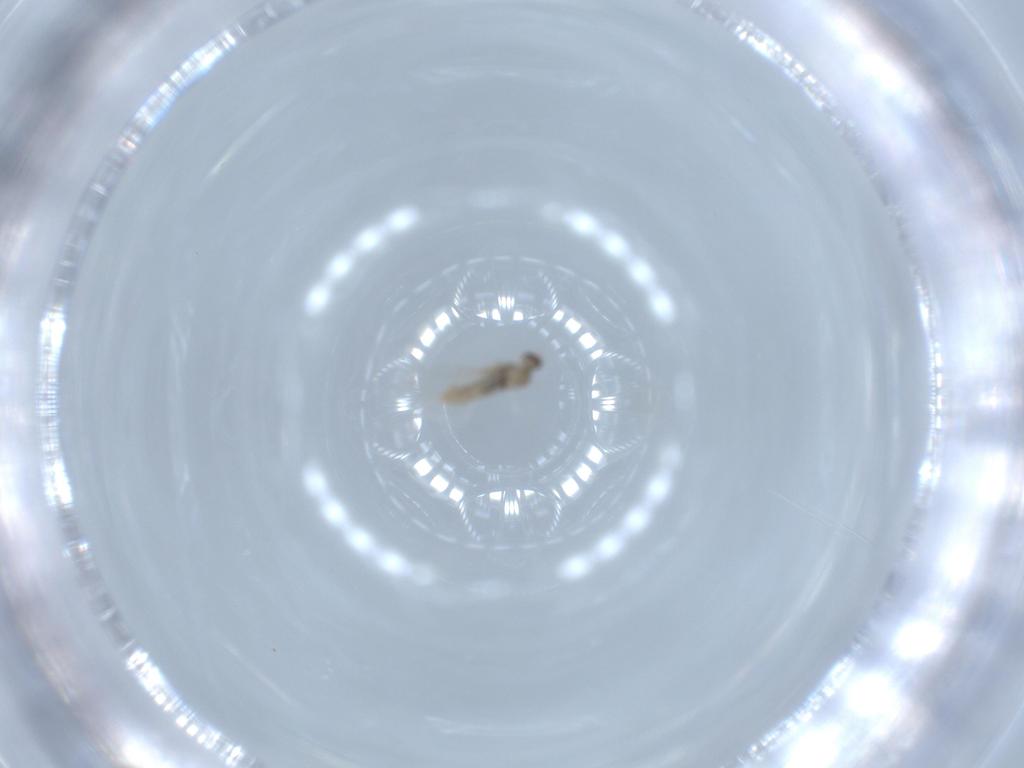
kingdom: Animalia
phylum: Arthropoda
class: Insecta
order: Diptera
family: Cecidomyiidae
